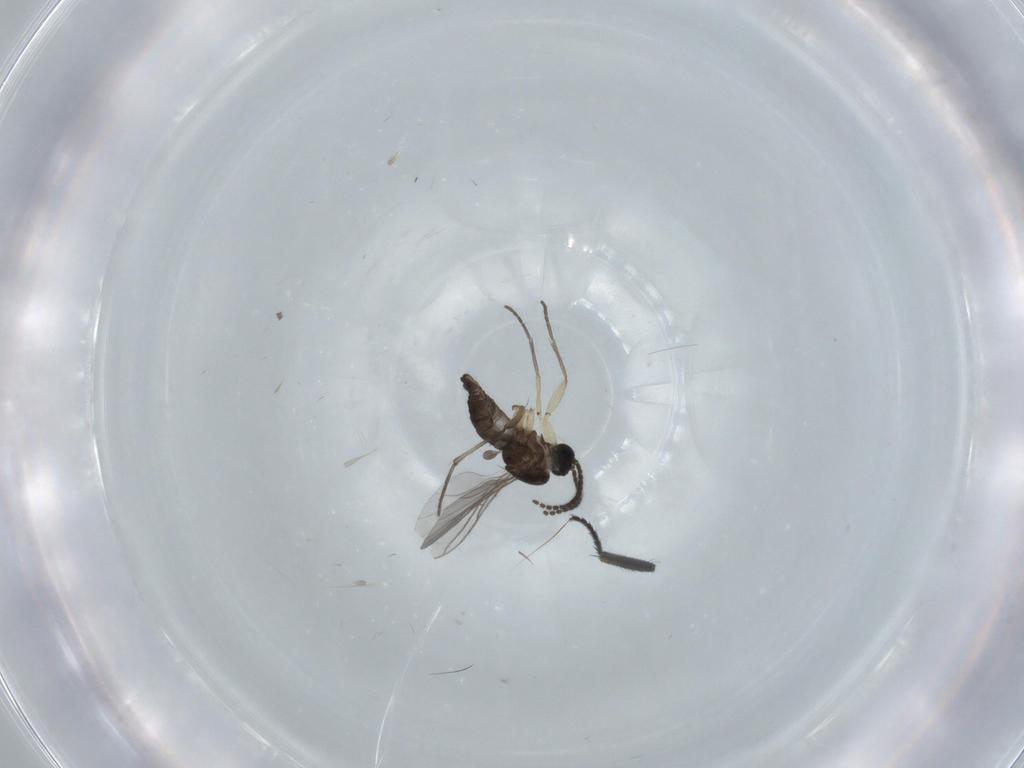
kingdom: Animalia
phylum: Arthropoda
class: Insecta
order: Diptera
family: Sciaridae
